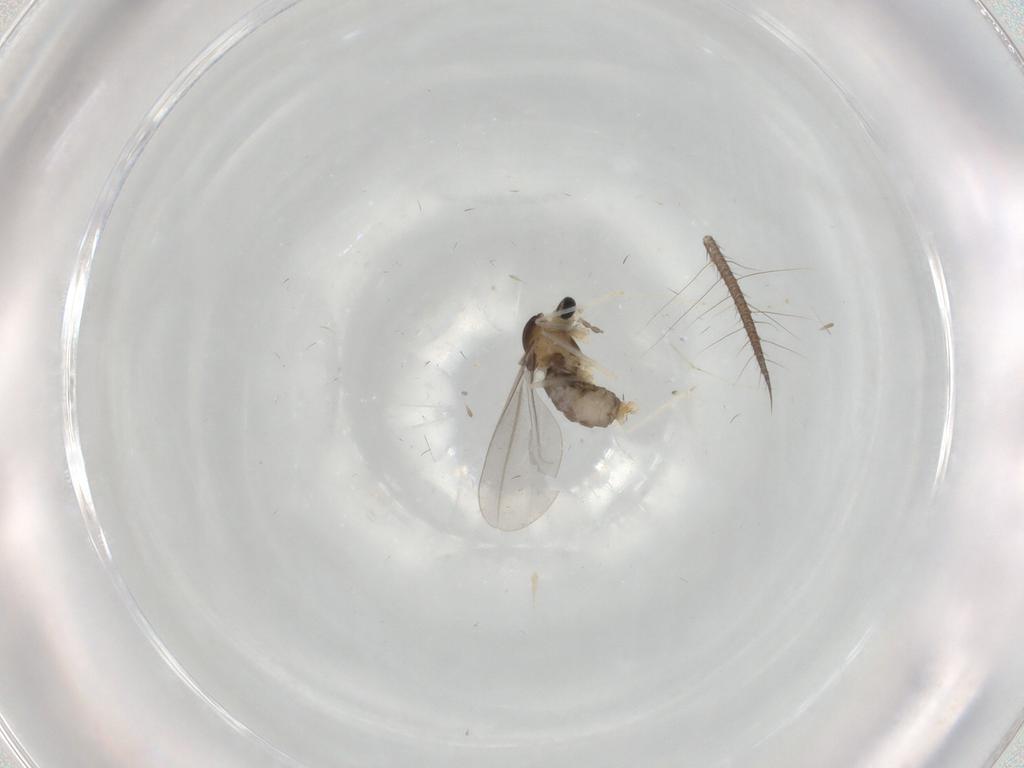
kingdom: Animalia
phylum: Arthropoda
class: Insecta
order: Diptera
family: Cecidomyiidae
